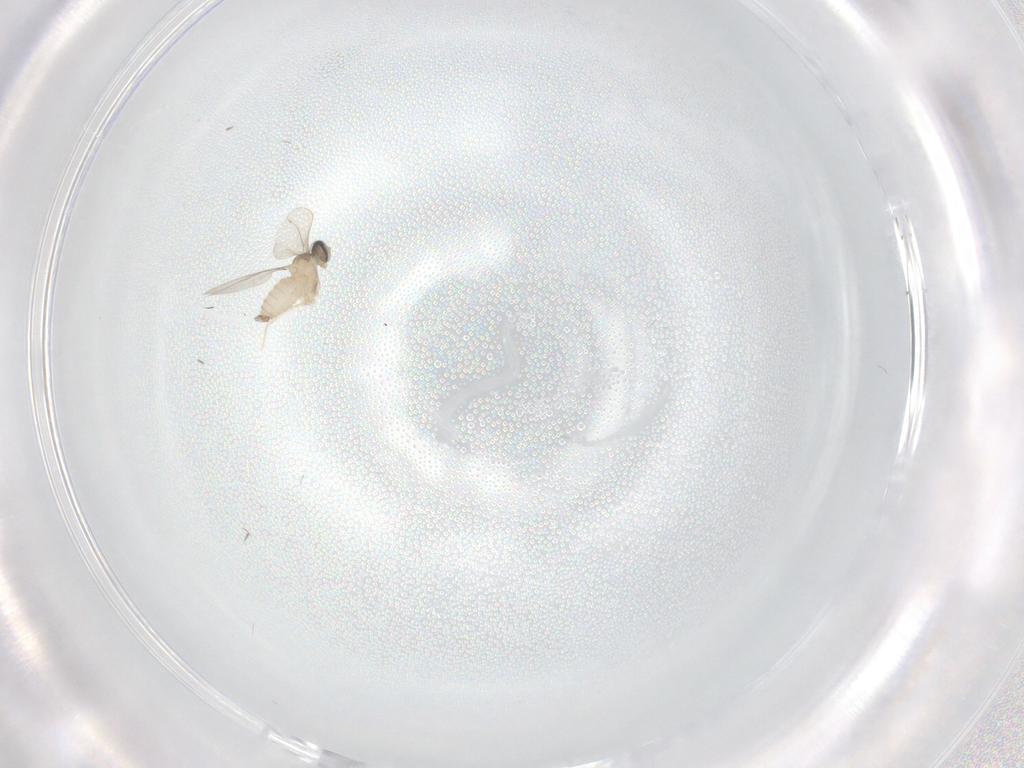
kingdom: Animalia
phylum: Arthropoda
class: Insecta
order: Diptera
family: Cecidomyiidae
